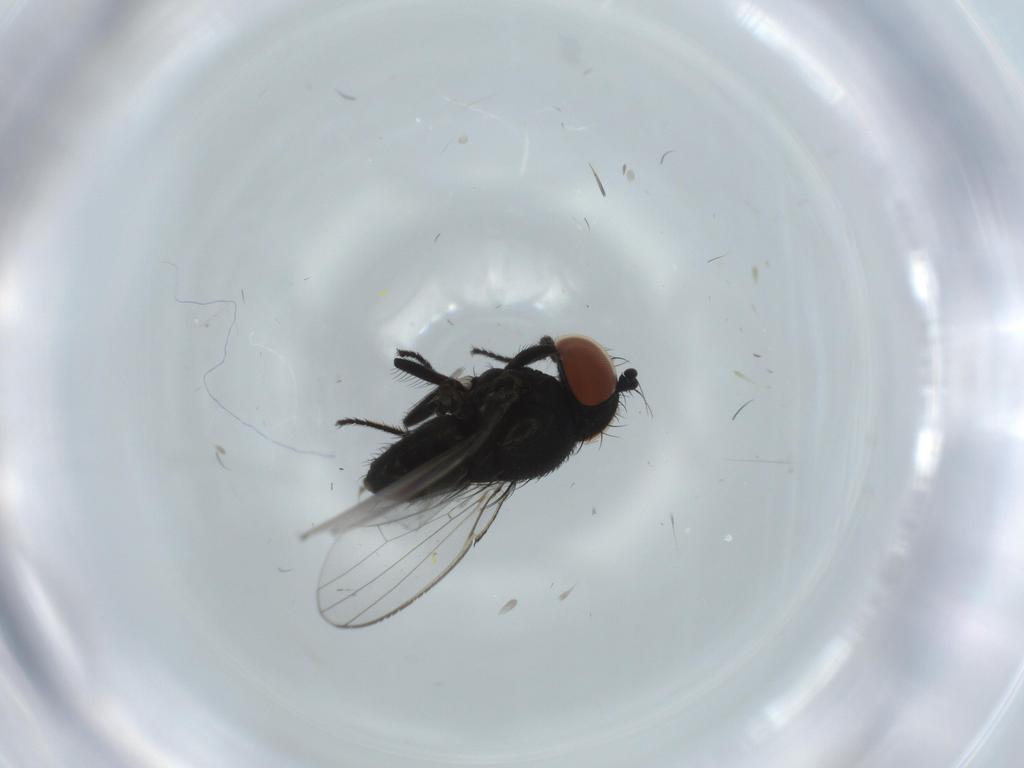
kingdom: Animalia
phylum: Arthropoda
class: Insecta
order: Diptera
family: Milichiidae
